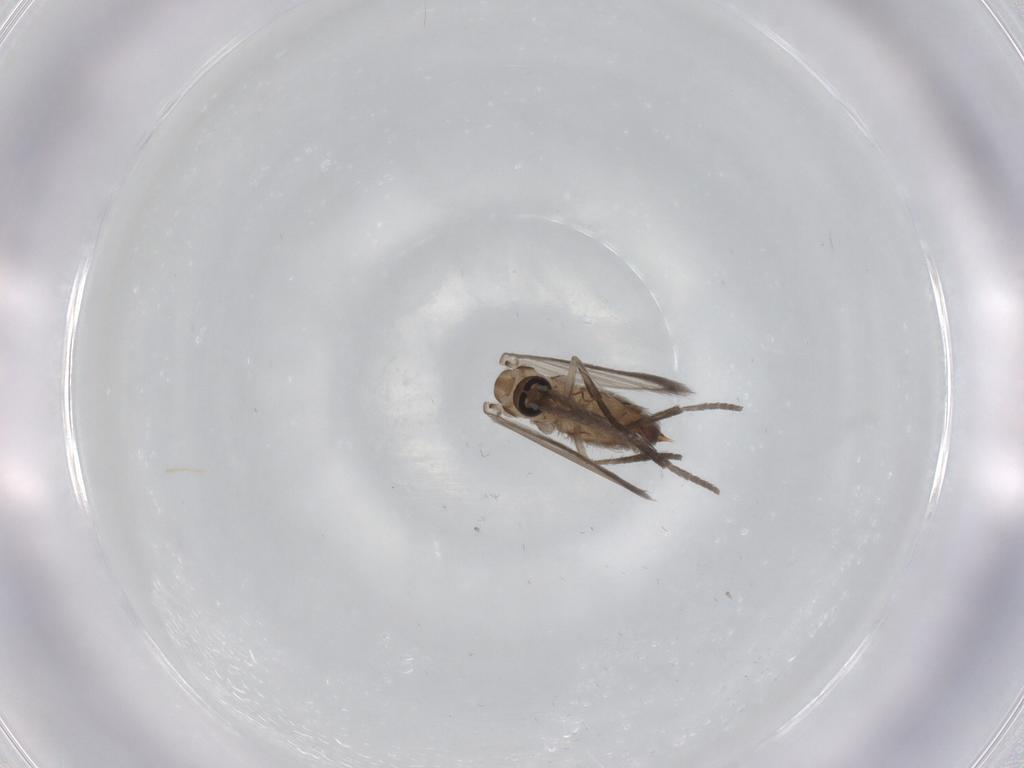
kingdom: Animalia
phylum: Arthropoda
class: Insecta
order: Diptera
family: Psychodidae
